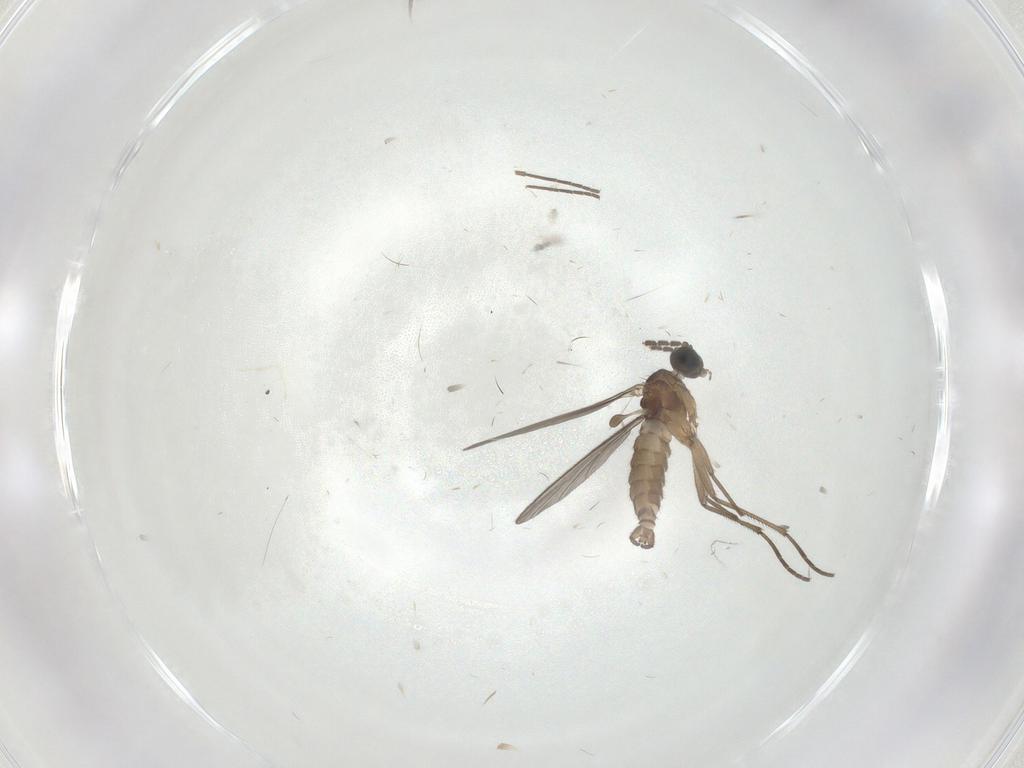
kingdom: Animalia
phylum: Arthropoda
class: Insecta
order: Diptera
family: Sciaridae
